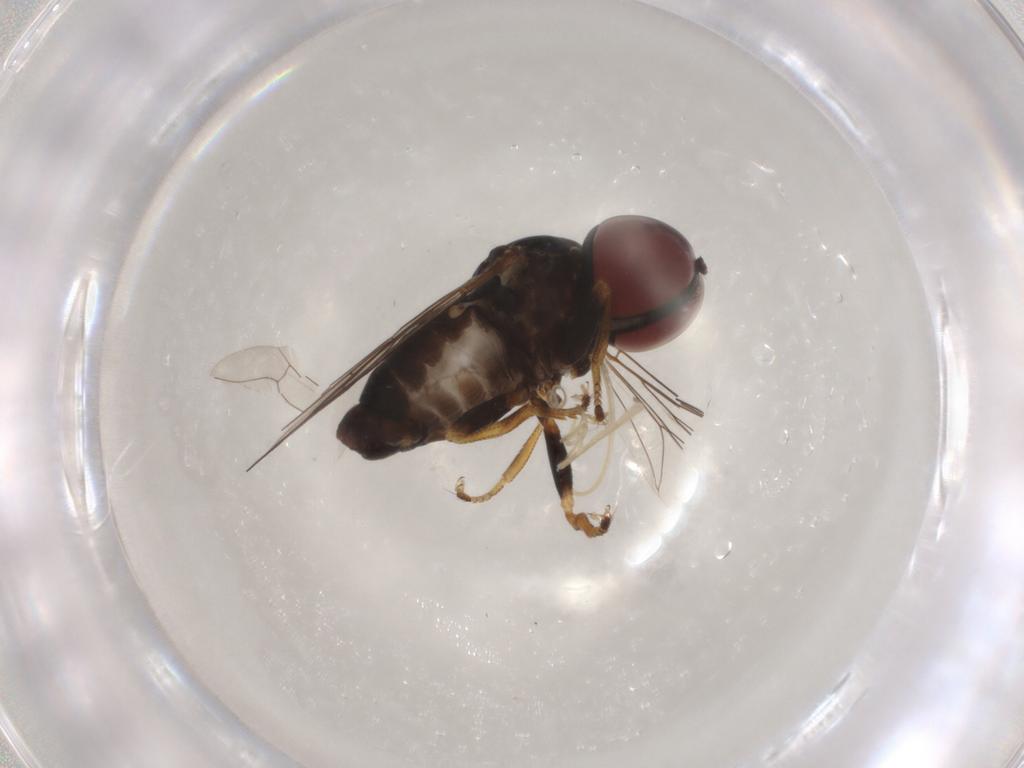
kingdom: Animalia
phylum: Arthropoda
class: Insecta
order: Diptera
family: Pipunculidae
